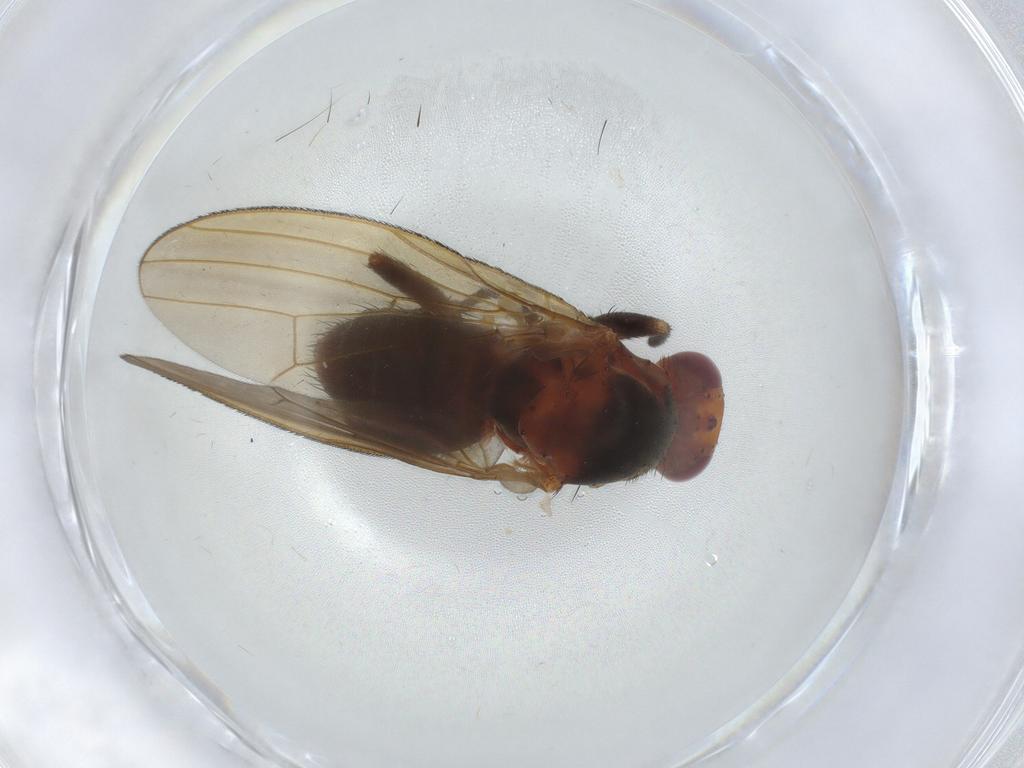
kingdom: Animalia
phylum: Arthropoda
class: Insecta
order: Diptera
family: Sciomyzidae
